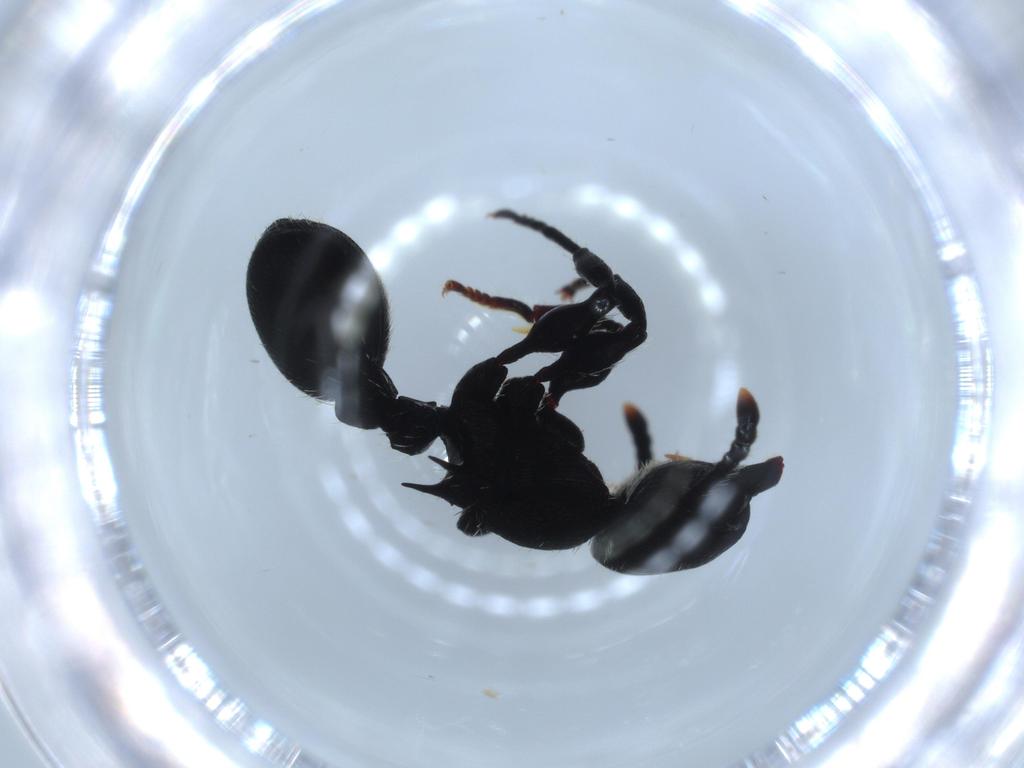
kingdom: Animalia
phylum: Arthropoda
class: Insecta
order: Hymenoptera
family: Formicidae
